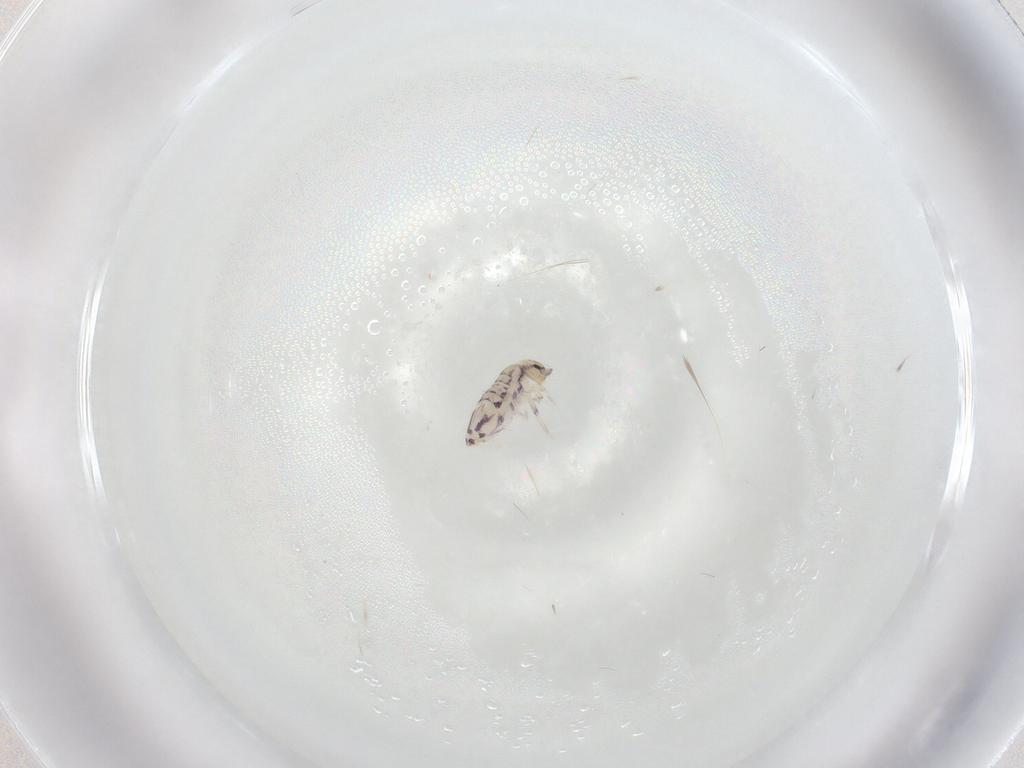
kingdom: Animalia
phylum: Arthropoda
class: Collembola
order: Entomobryomorpha
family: Entomobryidae
